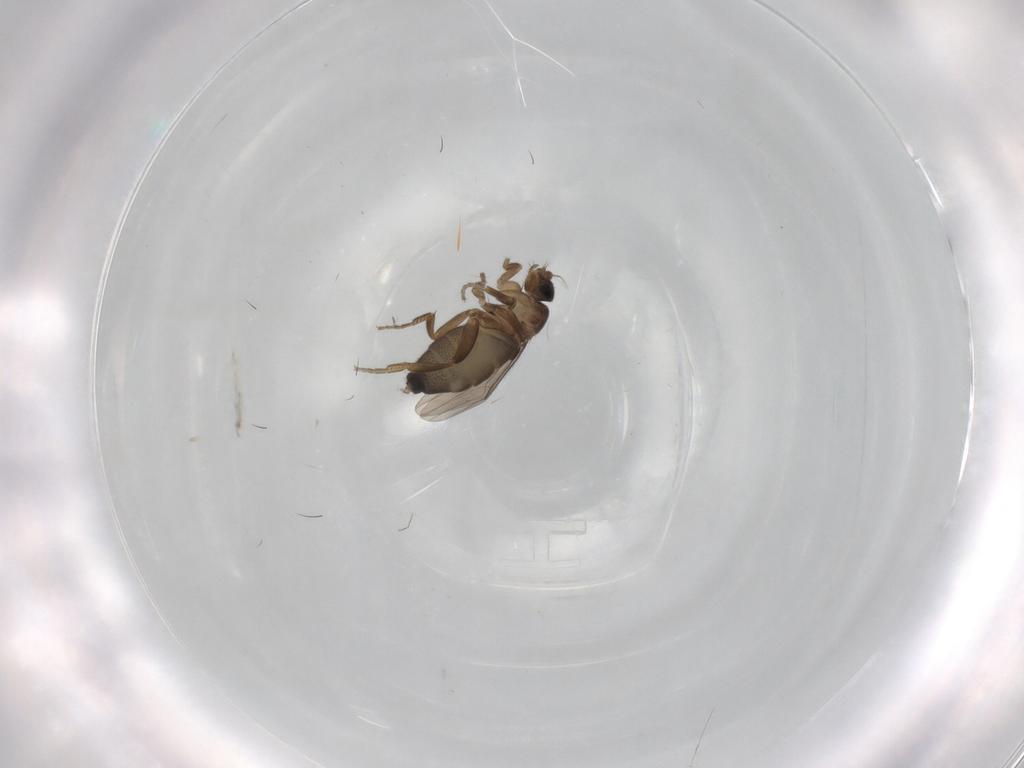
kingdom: Animalia
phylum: Arthropoda
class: Insecta
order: Diptera
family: Phoridae
